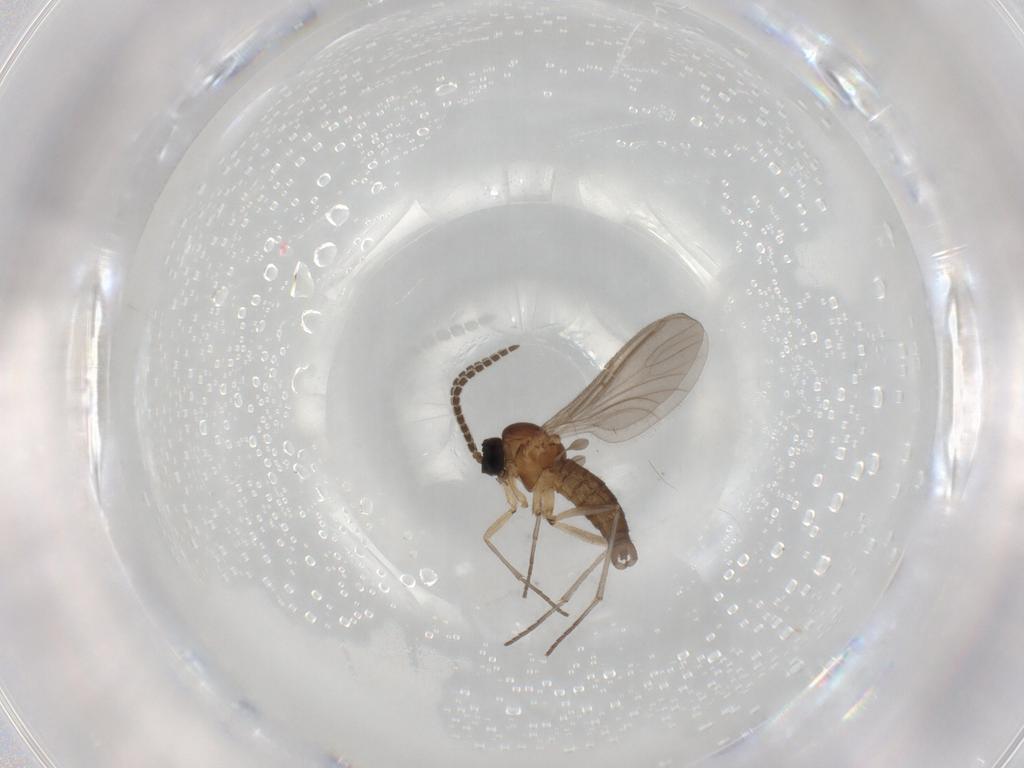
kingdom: Animalia
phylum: Arthropoda
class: Insecta
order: Diptera
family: Sciaridae
